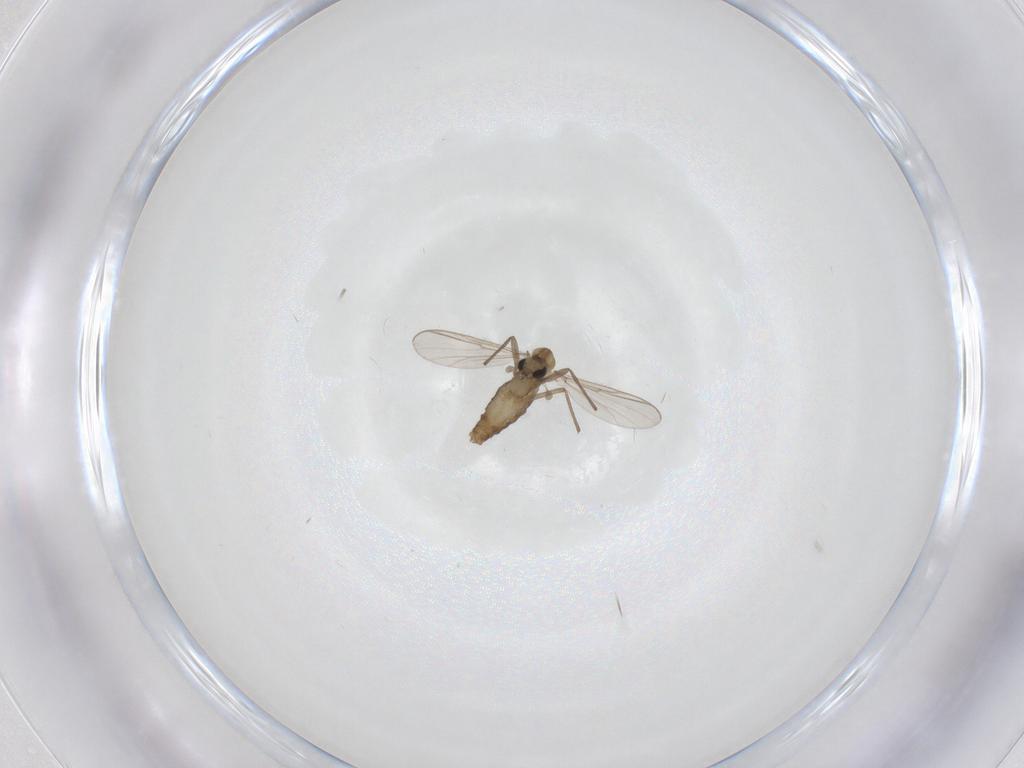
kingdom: Animalia
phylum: Arthropoda
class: Insecta
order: Diptera
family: Chironomidae
